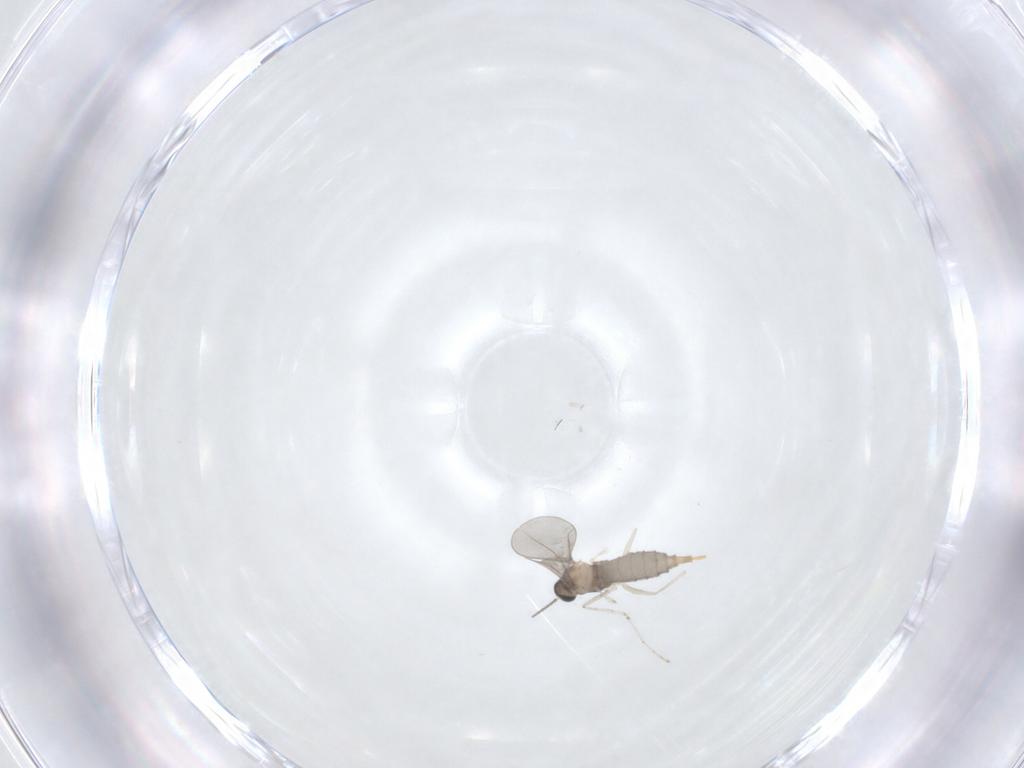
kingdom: Animalia
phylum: Arthropoda
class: Insecta
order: Diptera
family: Cecidomyiidae
